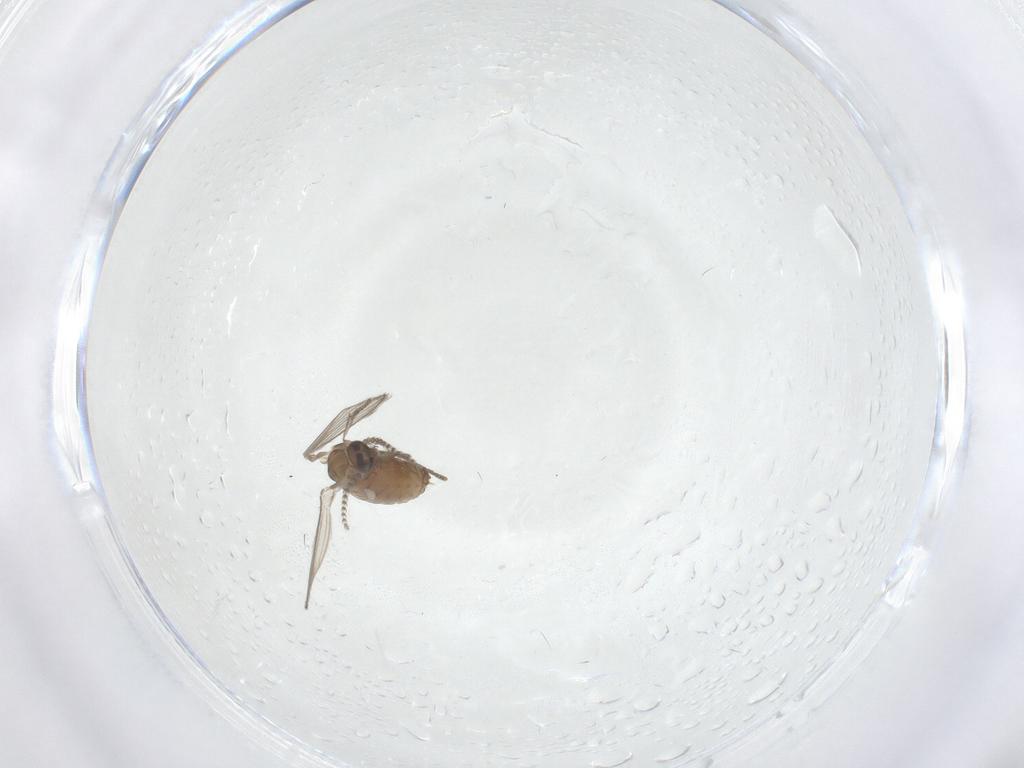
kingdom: Animalia
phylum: Arthropoda
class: Insecta
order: Diptera
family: Psychodidae
